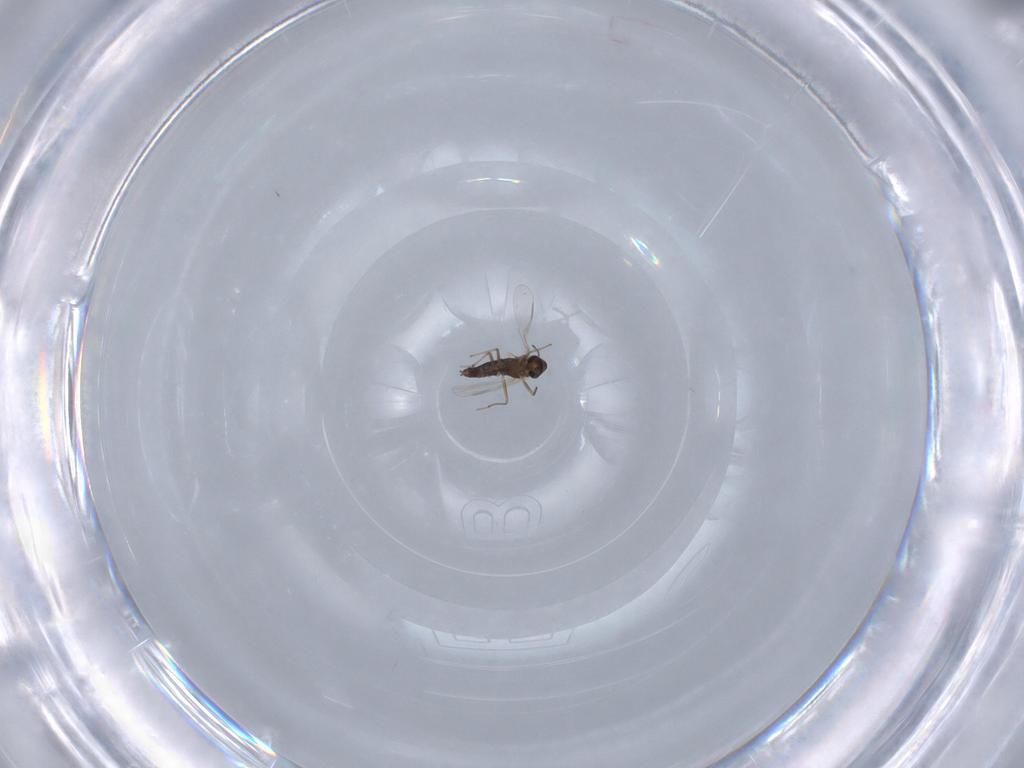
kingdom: Animalia
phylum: Arthropoda
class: Insecta
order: Diptera
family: Chironomidae
